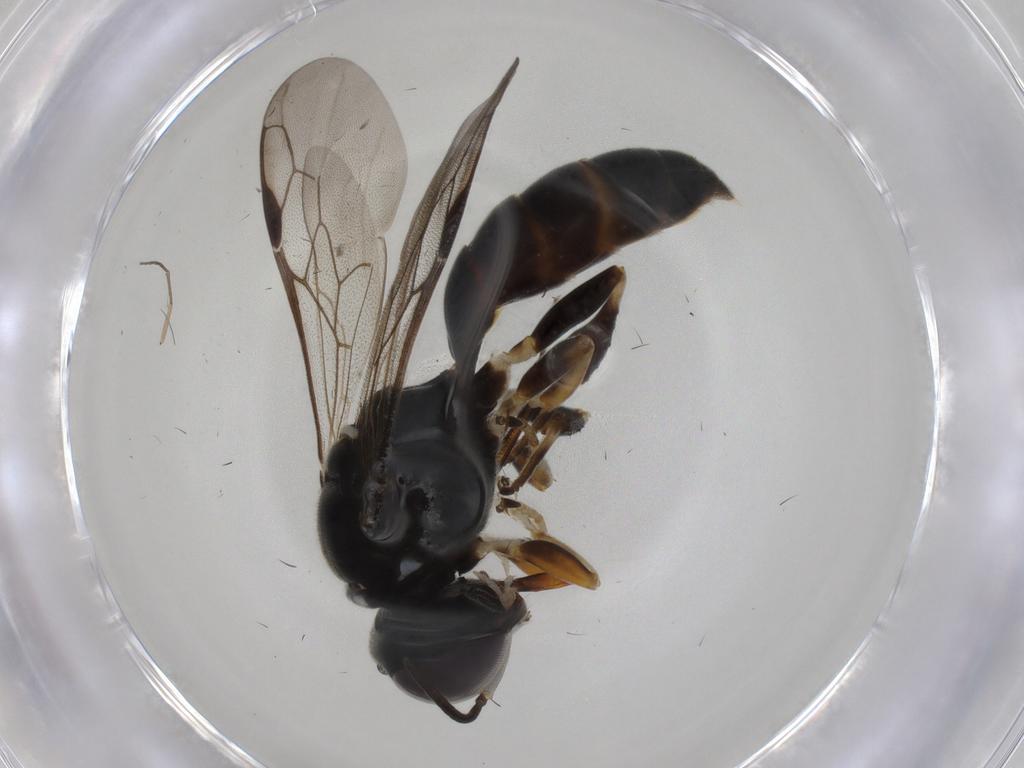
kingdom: Animalia
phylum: Arthropoda
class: Insecta
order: Hymenoptera
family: Crabronidae
